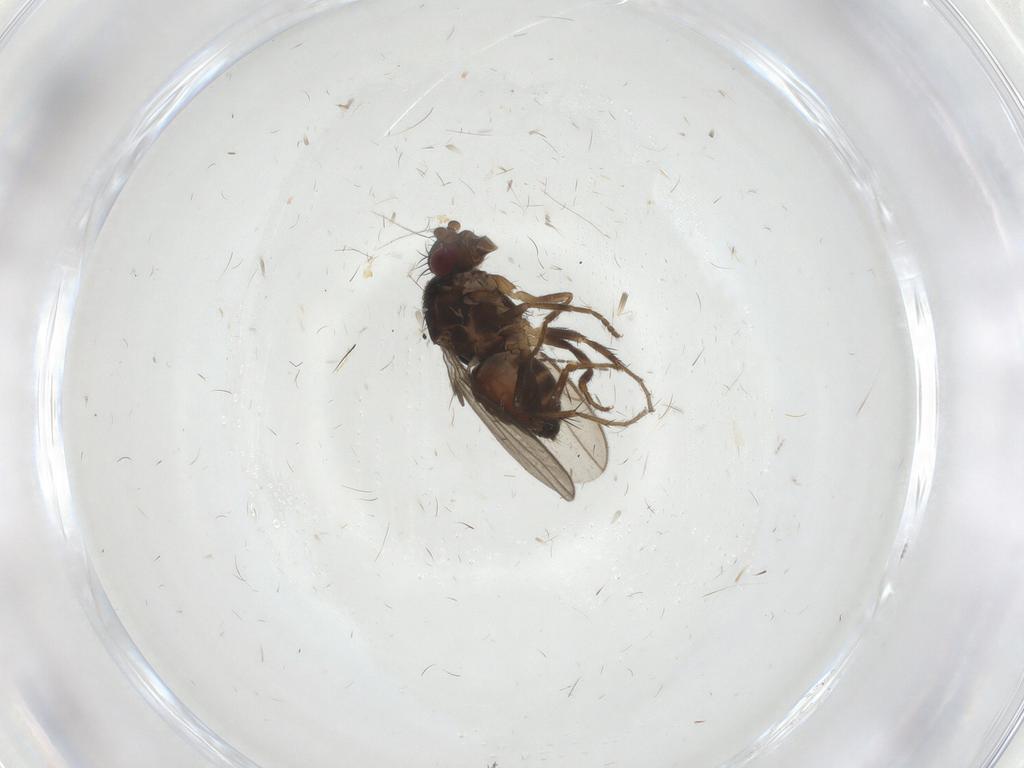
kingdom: Animalia
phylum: Arthropoda
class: Insecta
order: Diptera
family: Sphaeroceridae
